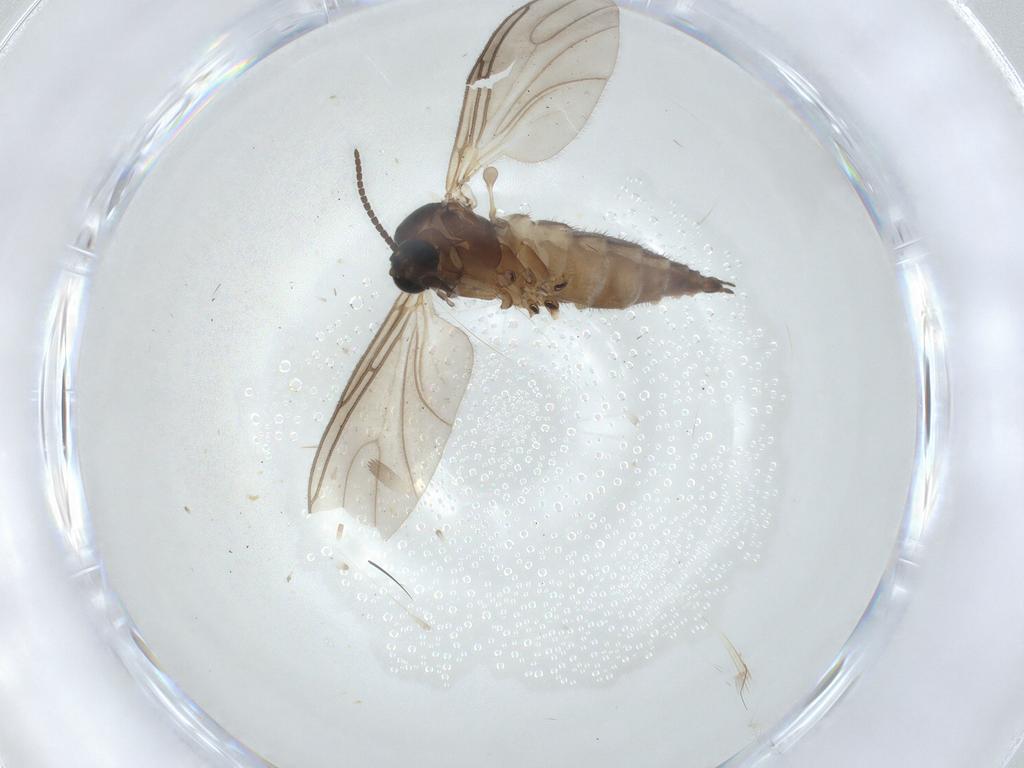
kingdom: Animalia
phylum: Arthropoda
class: Insecta
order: Diptera
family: Sciaridae
